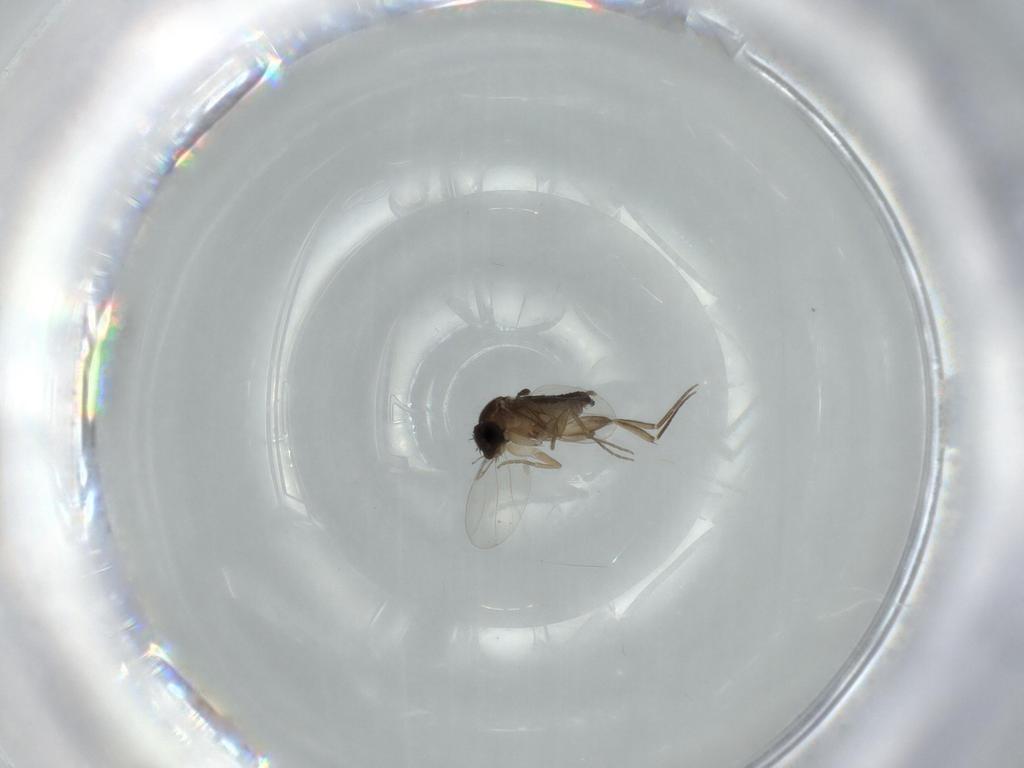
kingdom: Animalia
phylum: Arthropoda
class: Insecta
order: Diptera
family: Phoridae
